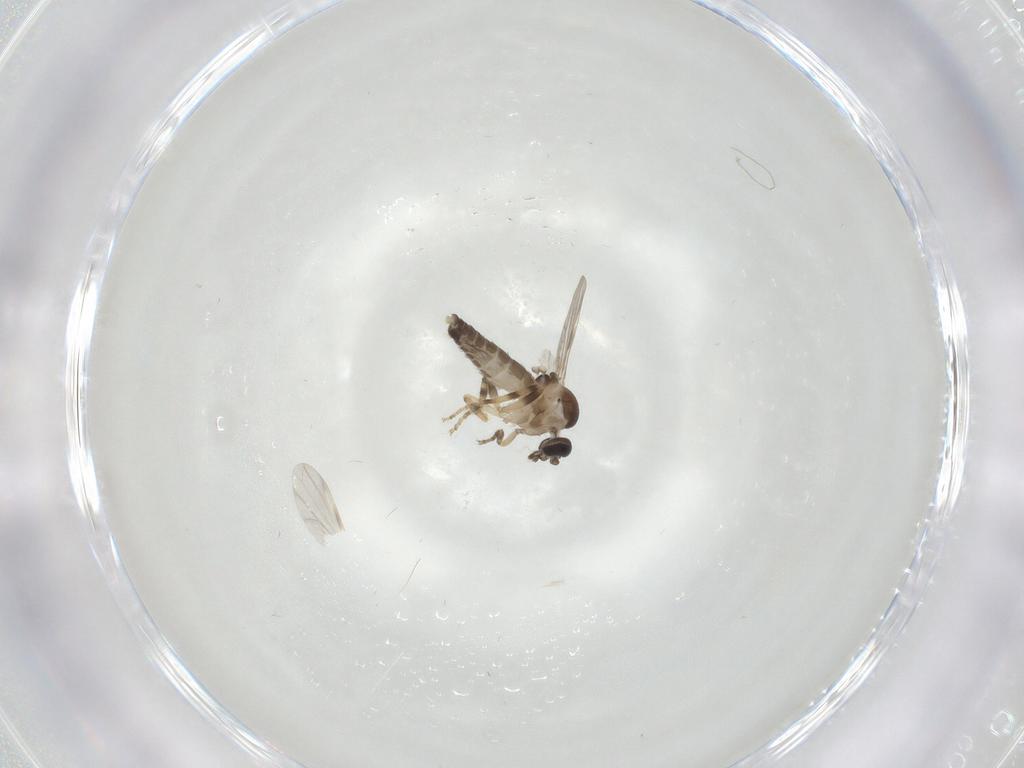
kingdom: Animalia
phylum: Arthropoda
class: Insecta
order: Diptera
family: Ceratopogonidae
